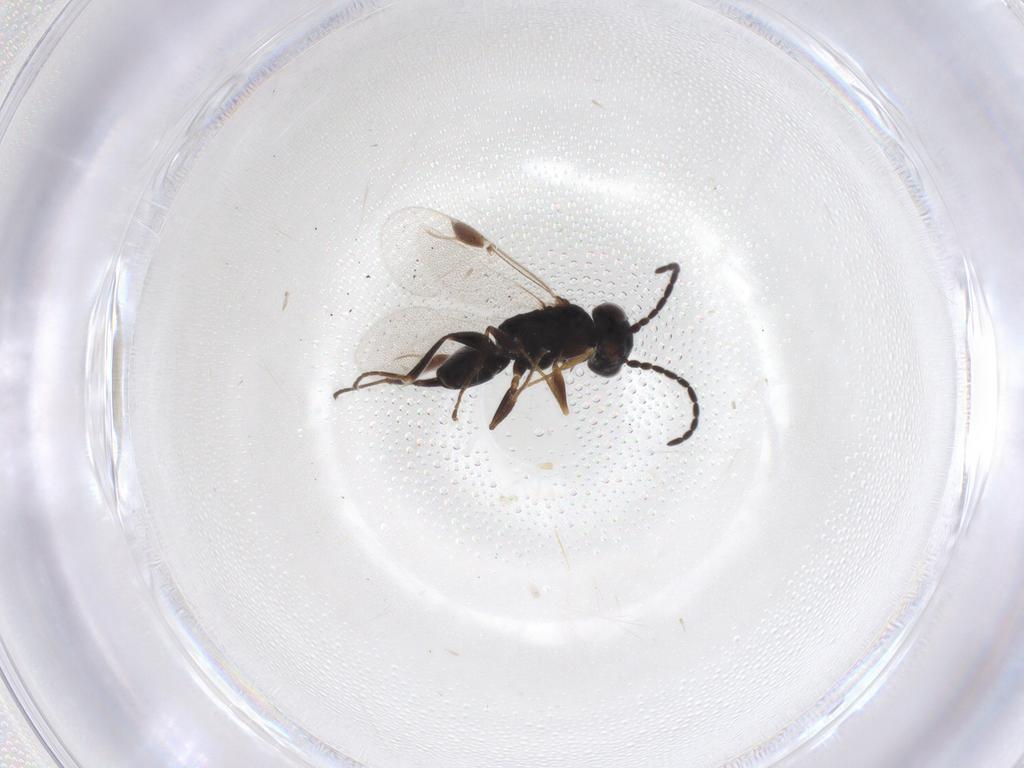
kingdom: Animalia
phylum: Arthropoda
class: Insecta
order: Hymenoptera
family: Dryinidae
